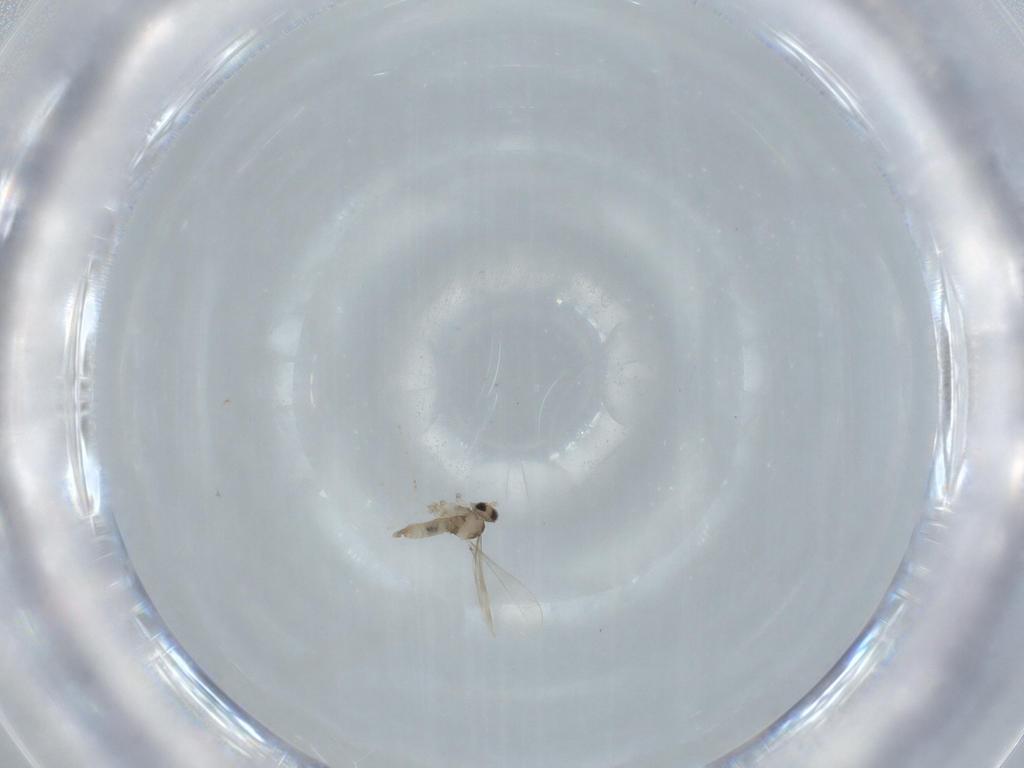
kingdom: Animalia
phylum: Arthropoda
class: Insecta
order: Diptera
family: Cecidomyiidae
